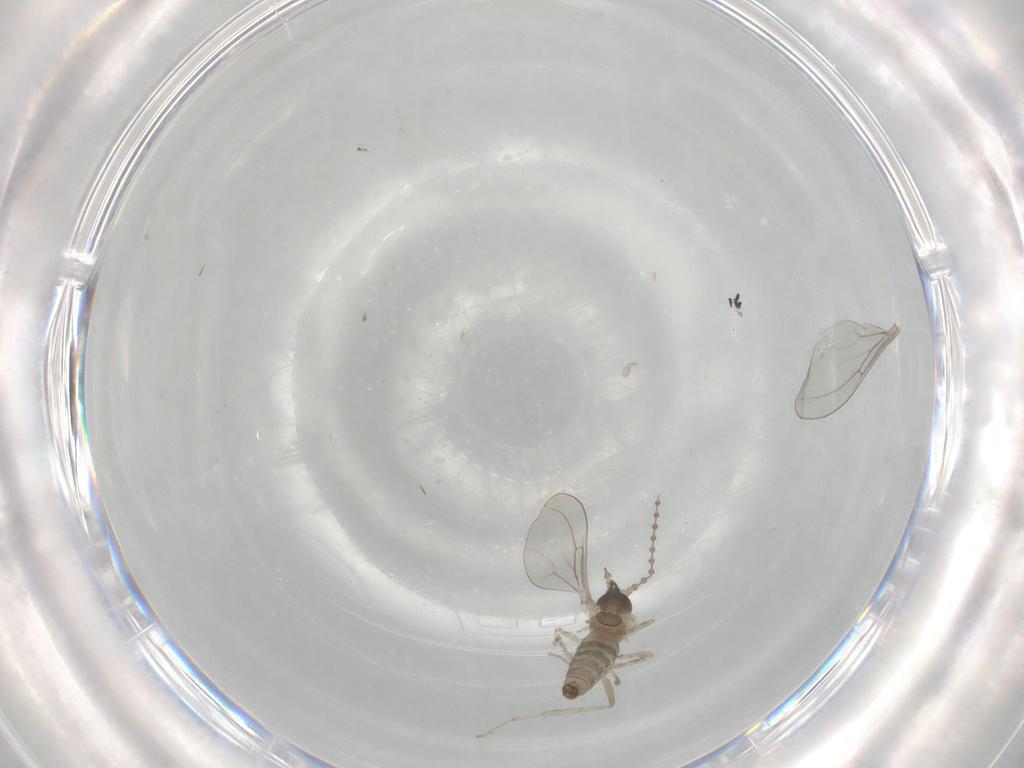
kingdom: Animalia
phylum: Arthropoda
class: Insecta
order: Diptera
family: Cecidomyiidae
